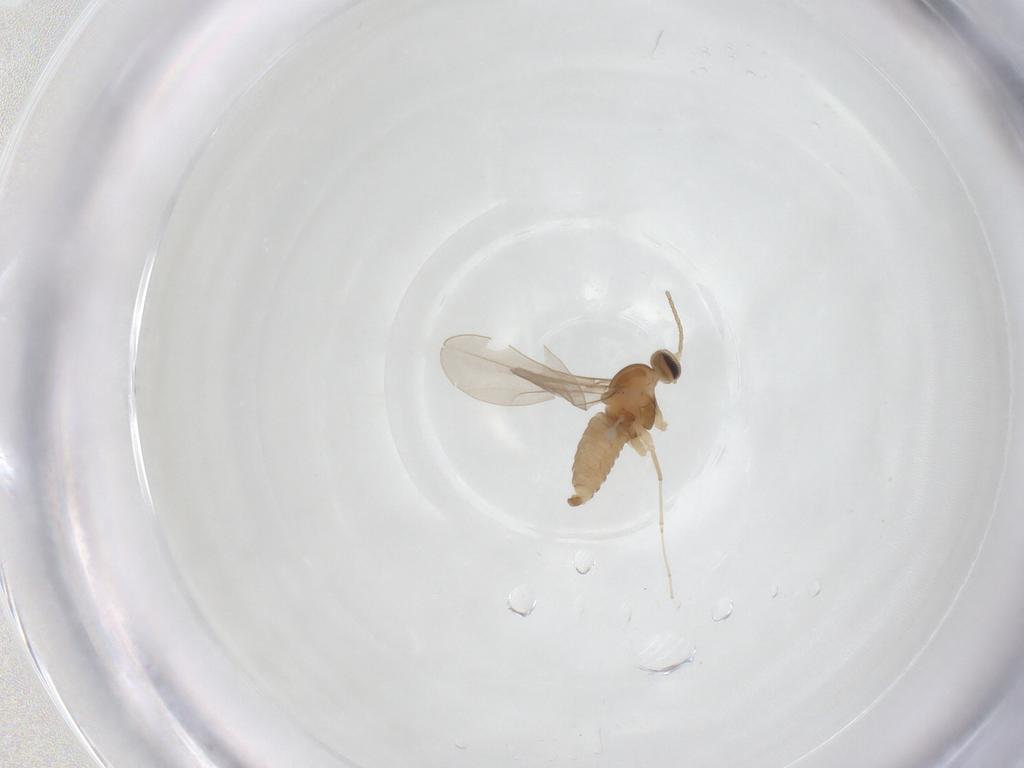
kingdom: Animalia
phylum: Arthropoda
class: Insecta
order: Diptera
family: Cecidomyiidae
